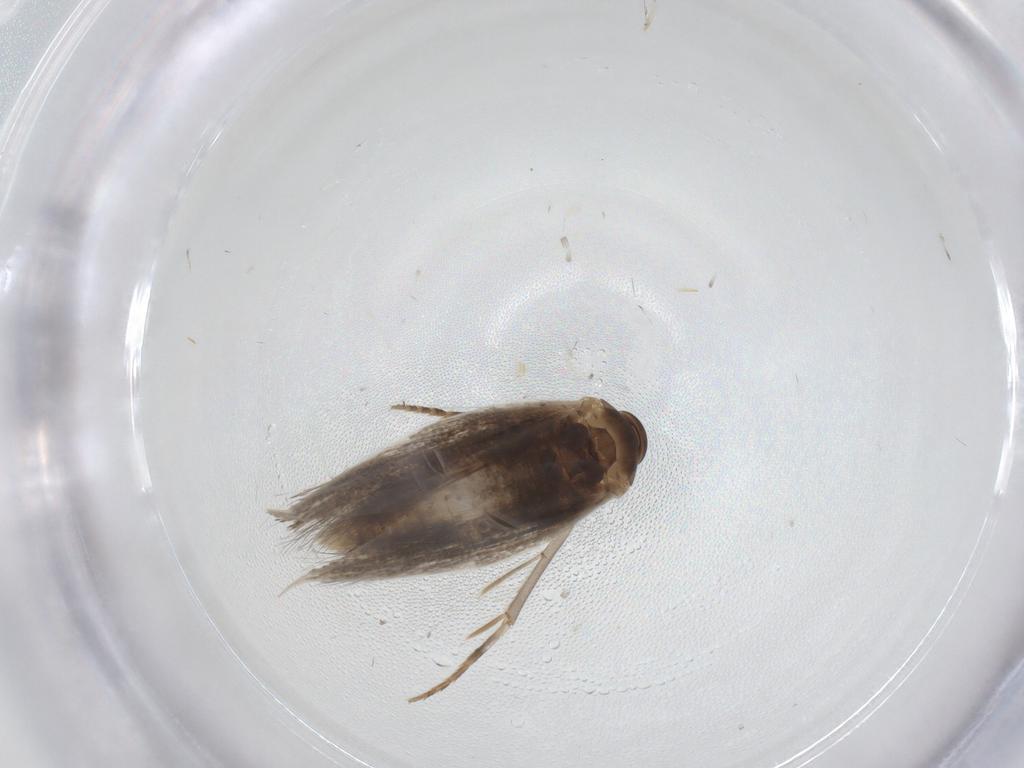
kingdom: Animalia
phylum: Arthropoda
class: Insecta
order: Lepidoptera
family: Elachistidae
